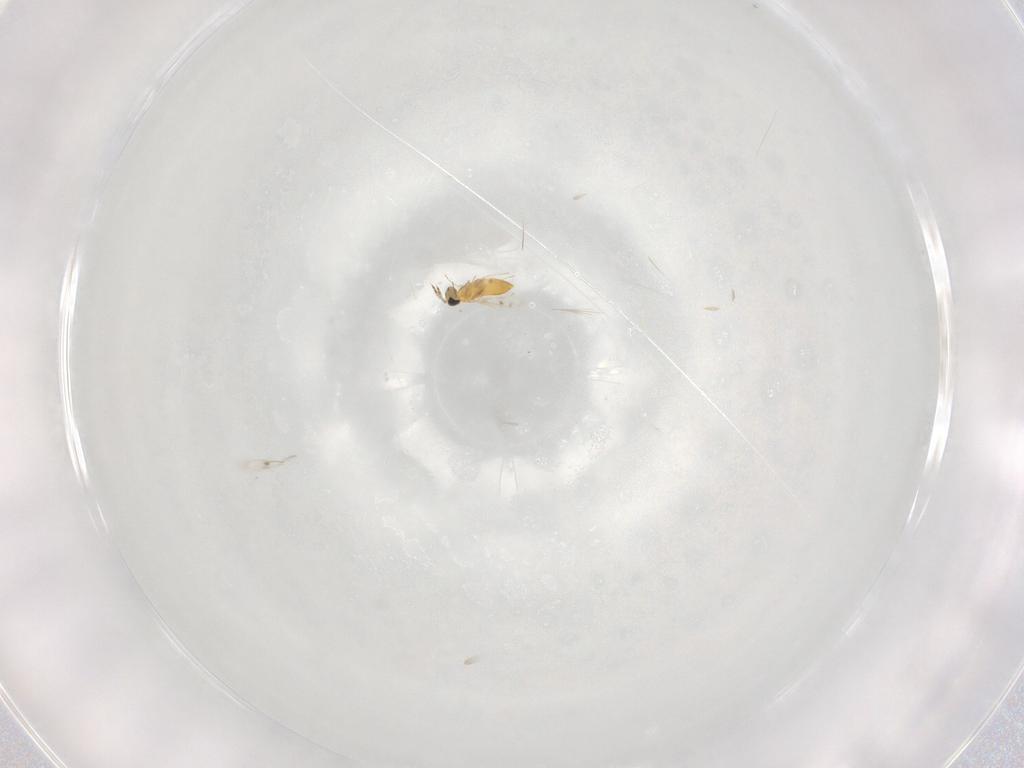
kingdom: Animalia
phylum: Arthropoda
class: Insecta
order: Hymenoptera
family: Trichogrammatidae
